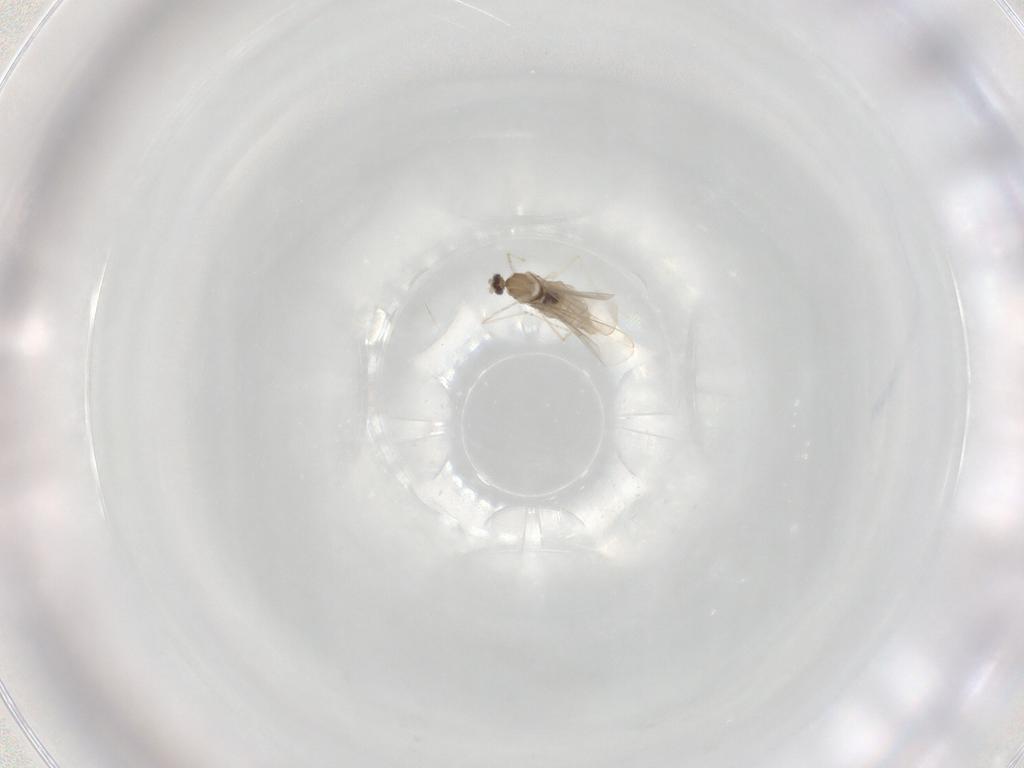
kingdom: Animalia
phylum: Arthropoda
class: Insecta
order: Diptera
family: Cecidomyiidae
